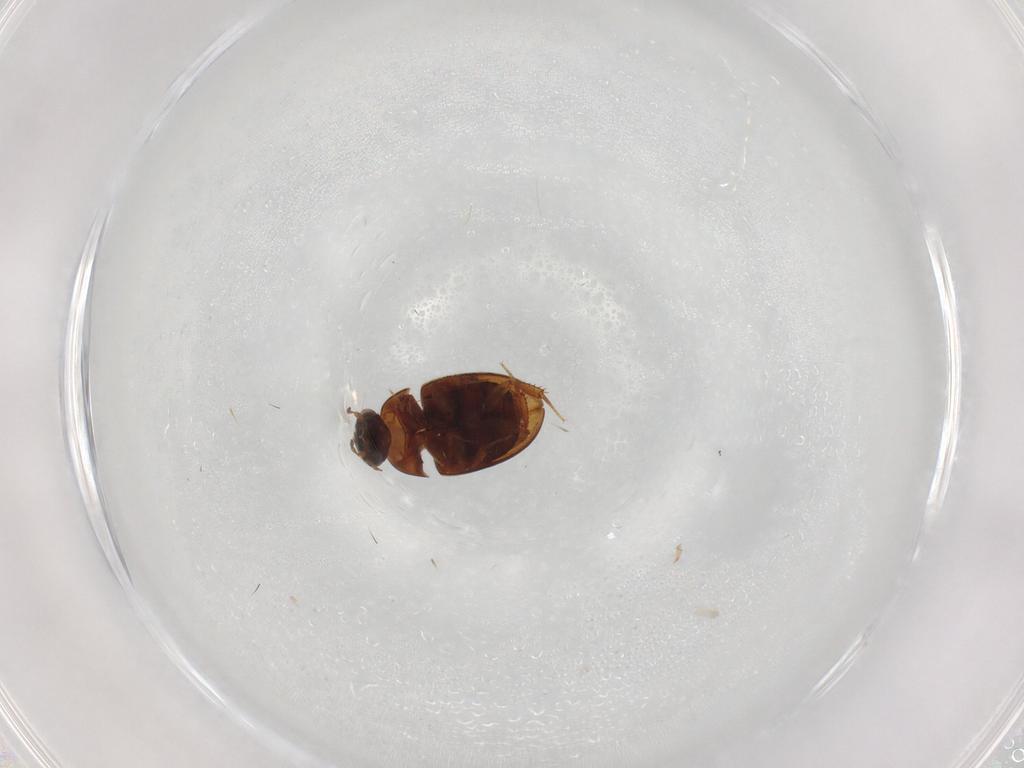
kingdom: Animalia
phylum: Arthropoda
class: Insecta
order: Coleoptera
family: Hydrophilidae
